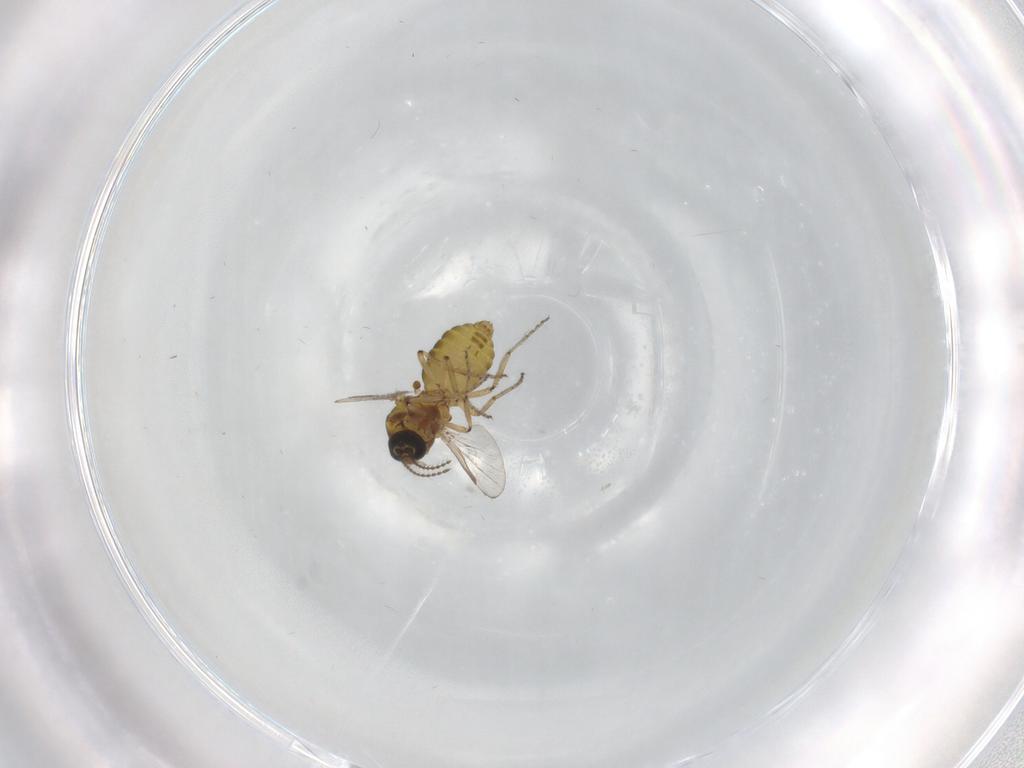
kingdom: Animalia
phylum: Arthropoda
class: Insecta
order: Diptera
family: Ceratopogonidae
